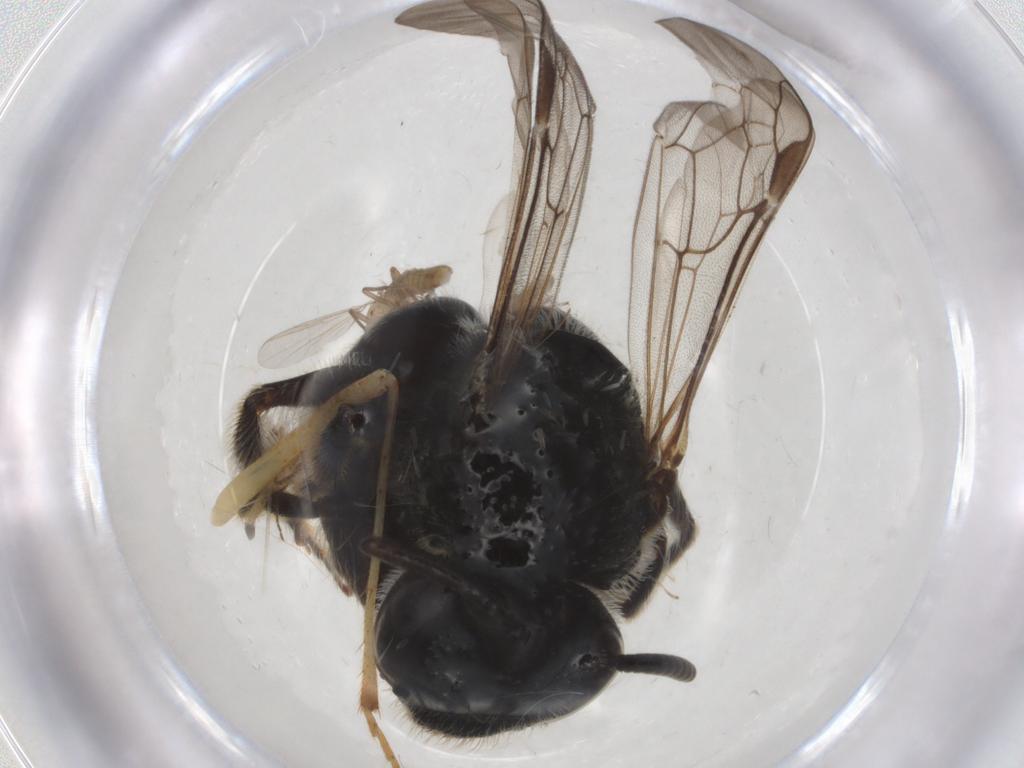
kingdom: Animalia
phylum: Arthropoda
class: Insecta
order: Diptera
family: Chironomidae
